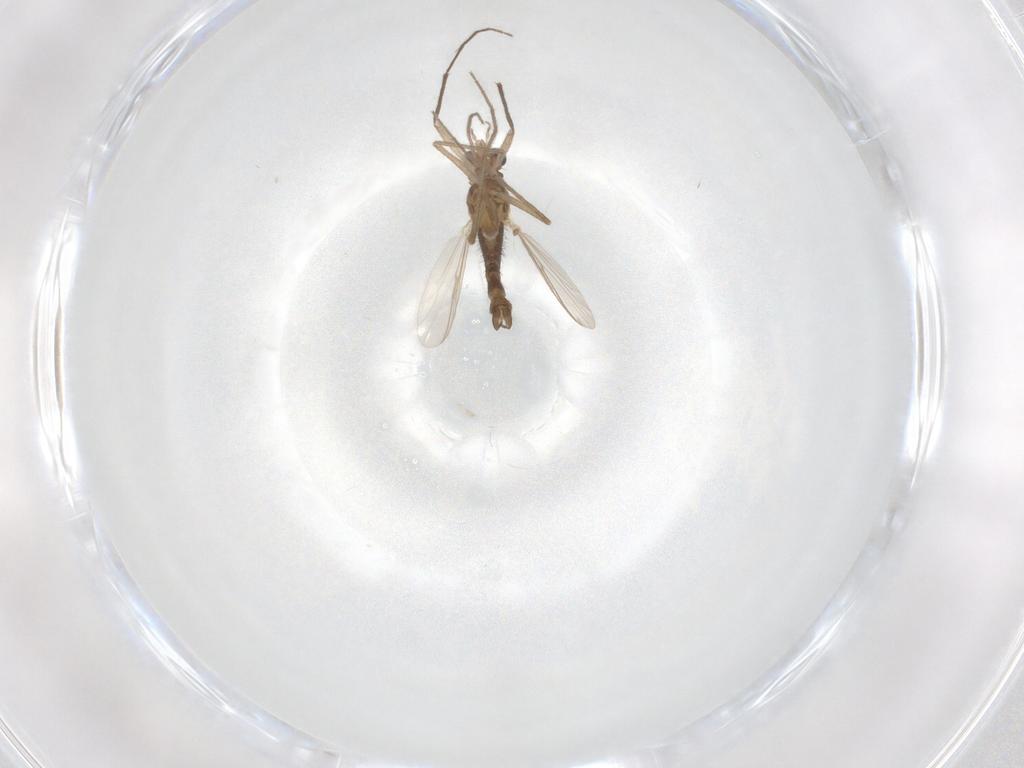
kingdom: Animalia
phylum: Arthropoda
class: Insecta
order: Diptera
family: Chironomidae
